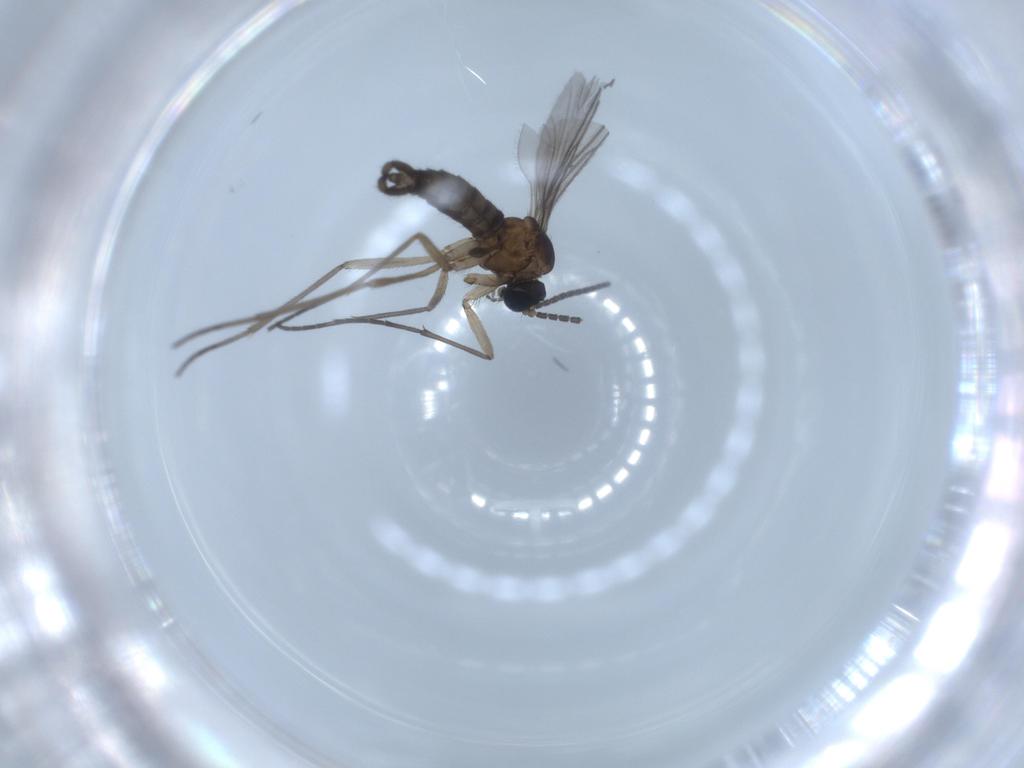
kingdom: Animalia
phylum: Arthropoda
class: Insecta
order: Diptera
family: Sciaridae
